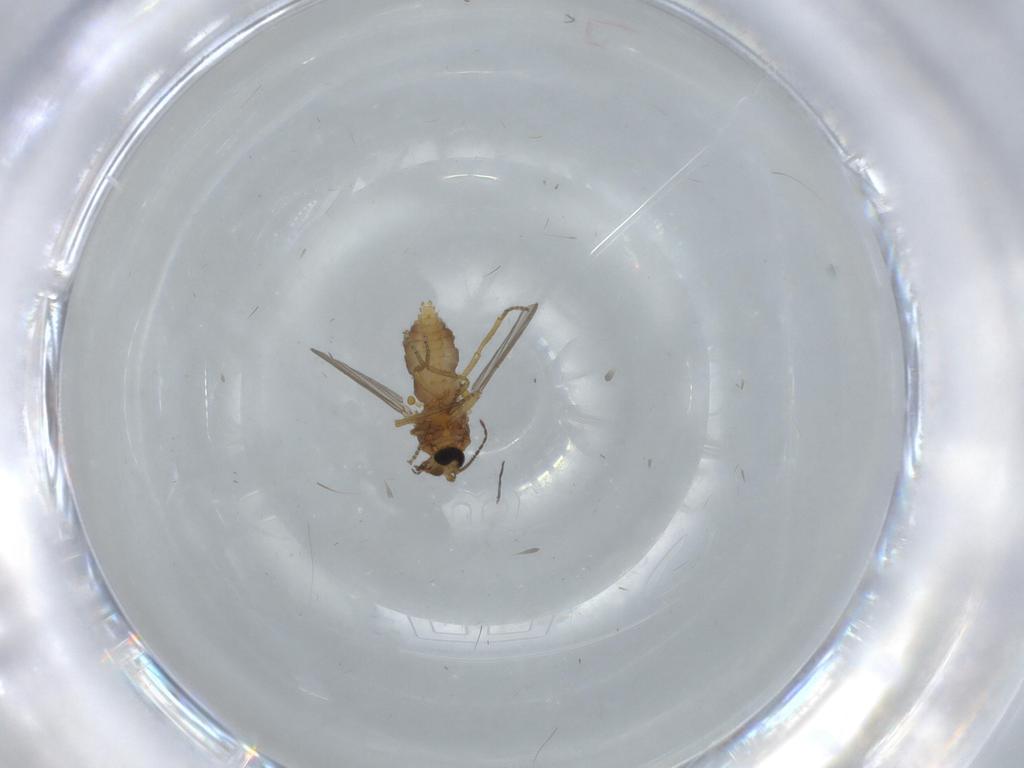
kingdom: Animalia
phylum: Arthropoda
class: Insecta
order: Diptera
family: Ceratopogonidae
